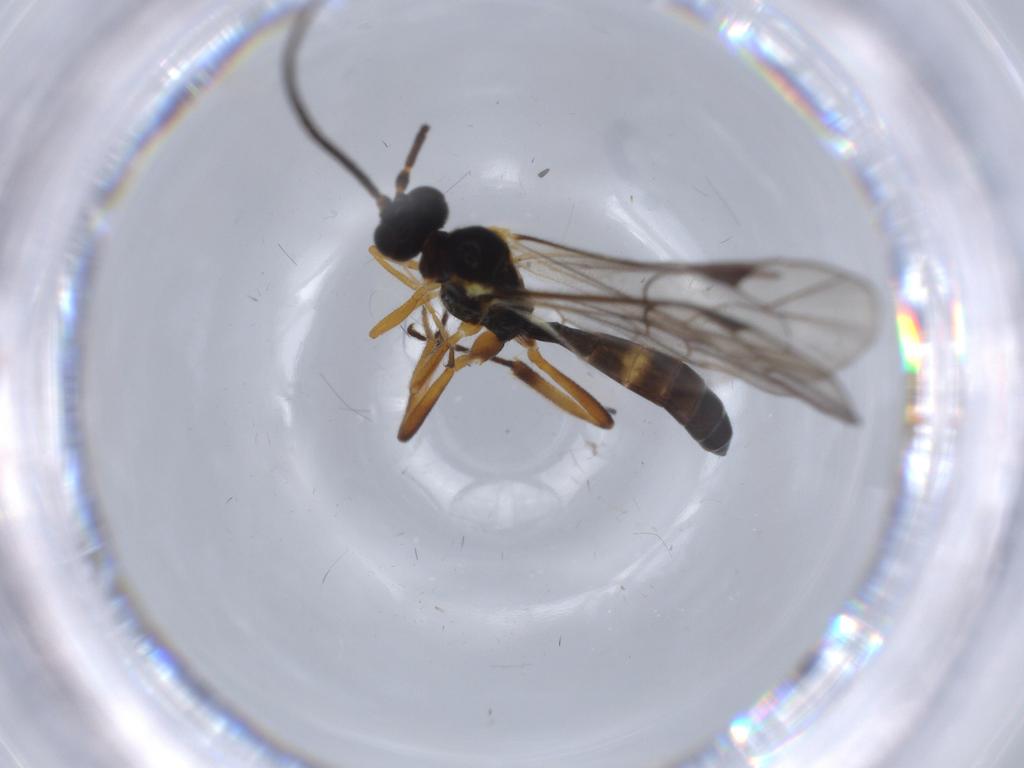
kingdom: Animalia
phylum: Arthropoda
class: Insecta
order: Hymenoptera
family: Ichneumonidae
